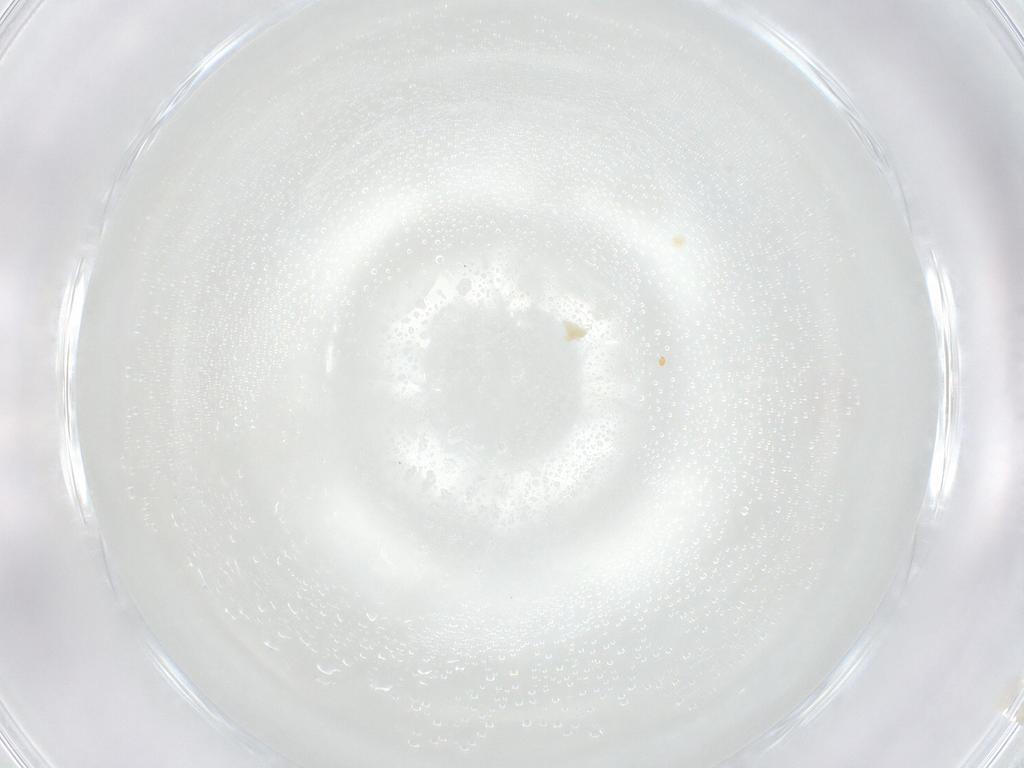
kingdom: Animalia
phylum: Arthropoda
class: Arachnida
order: Trombidiformes
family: Eupodidae
